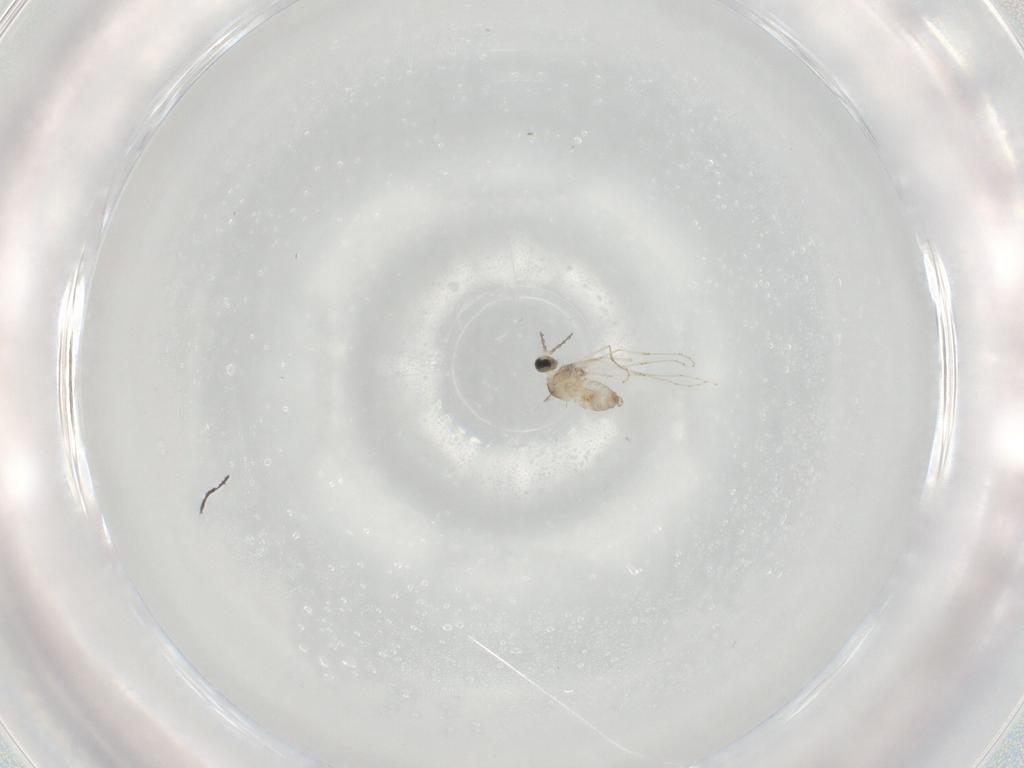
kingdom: Animalia
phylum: Arthropoda
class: Insecta
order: Diptera
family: Cecidomyiidae
